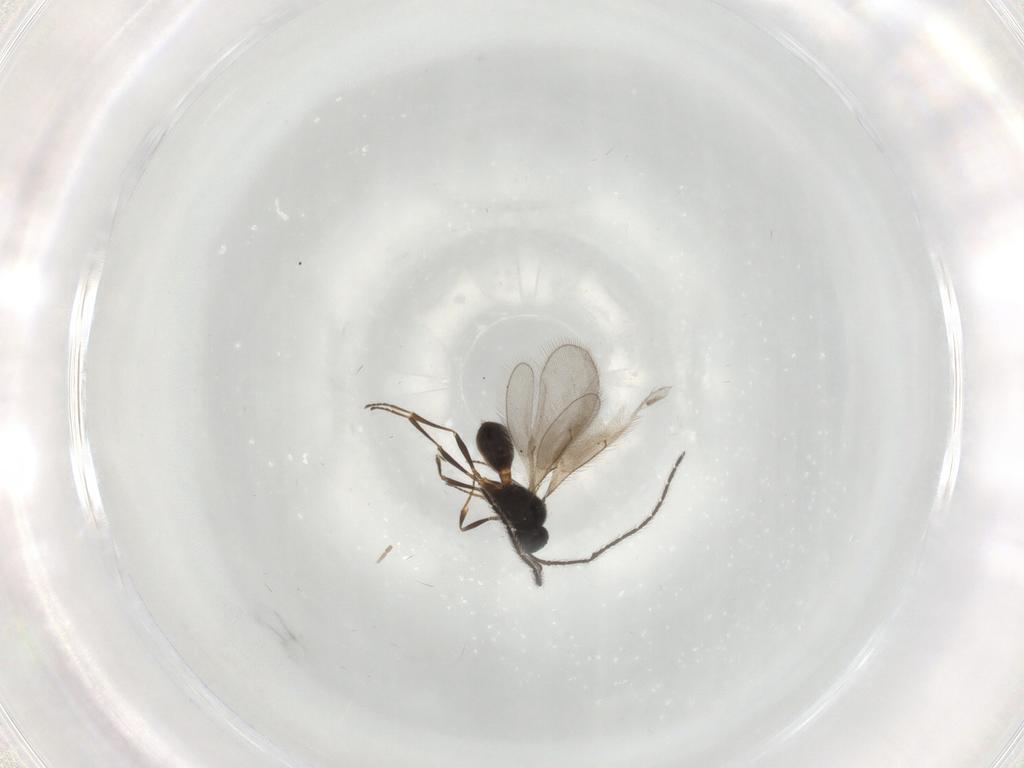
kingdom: Animalia
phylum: Arthropoda
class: Insecta
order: Hymenoptera
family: Scelionidae
